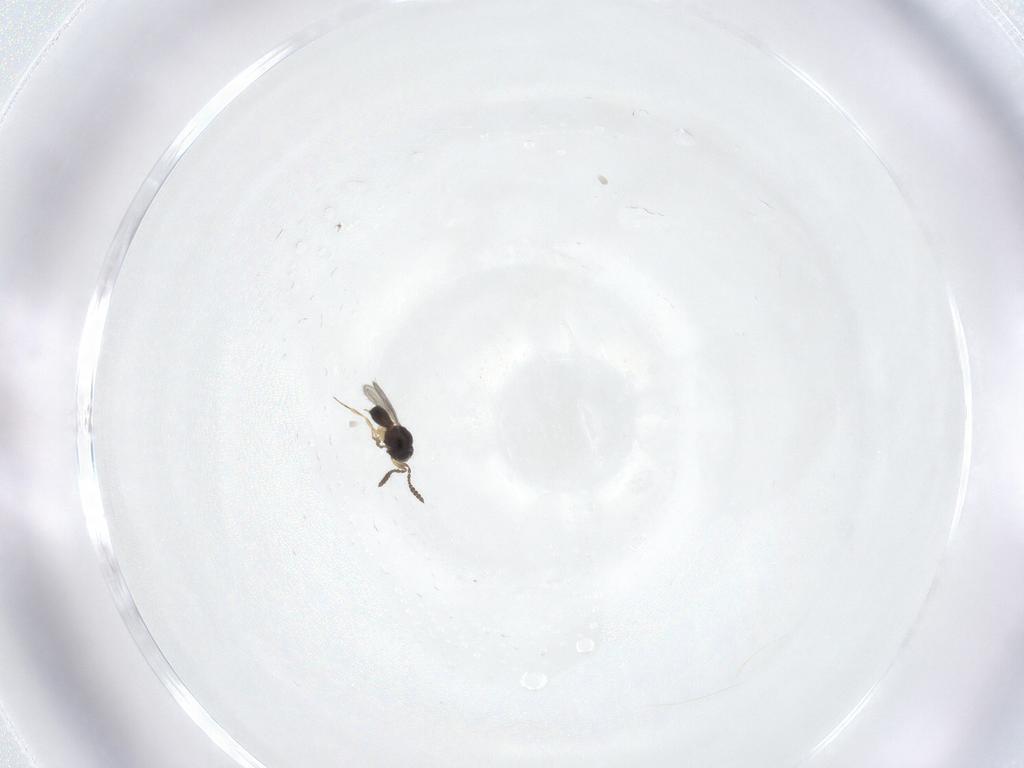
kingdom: Animalia
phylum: Arthropoda
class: Insecta
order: Hymenoptera
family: Scelionidae
